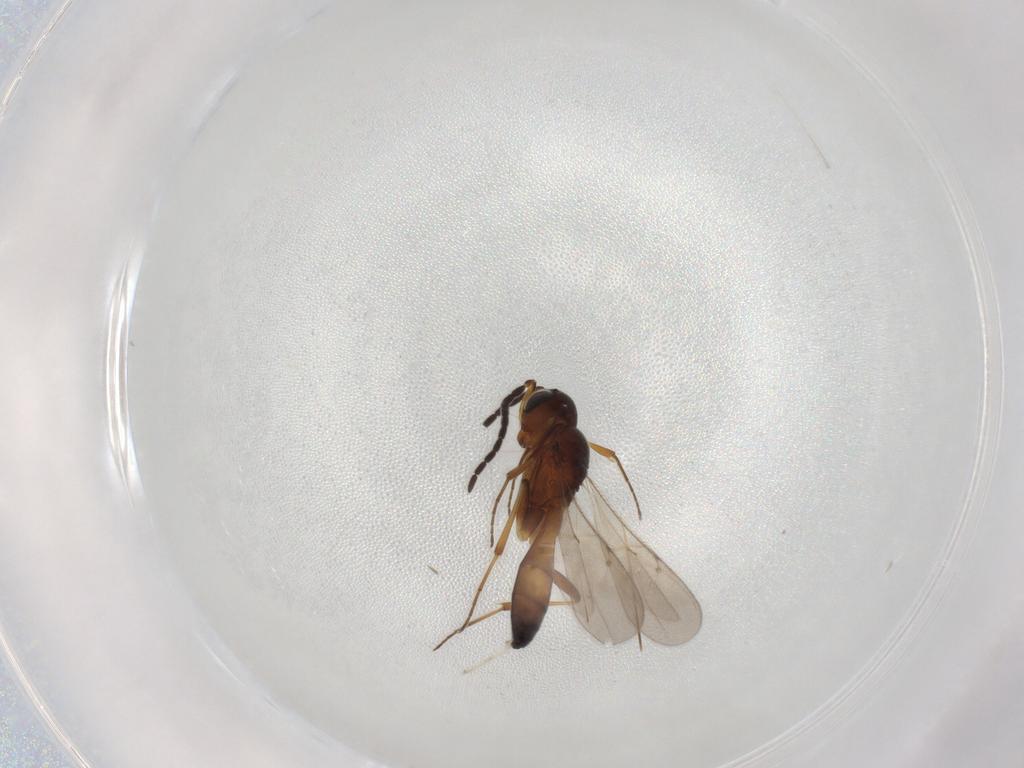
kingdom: Animalia
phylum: Arthropoda
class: Insecta
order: Hymenoptera
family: Scelionidae
